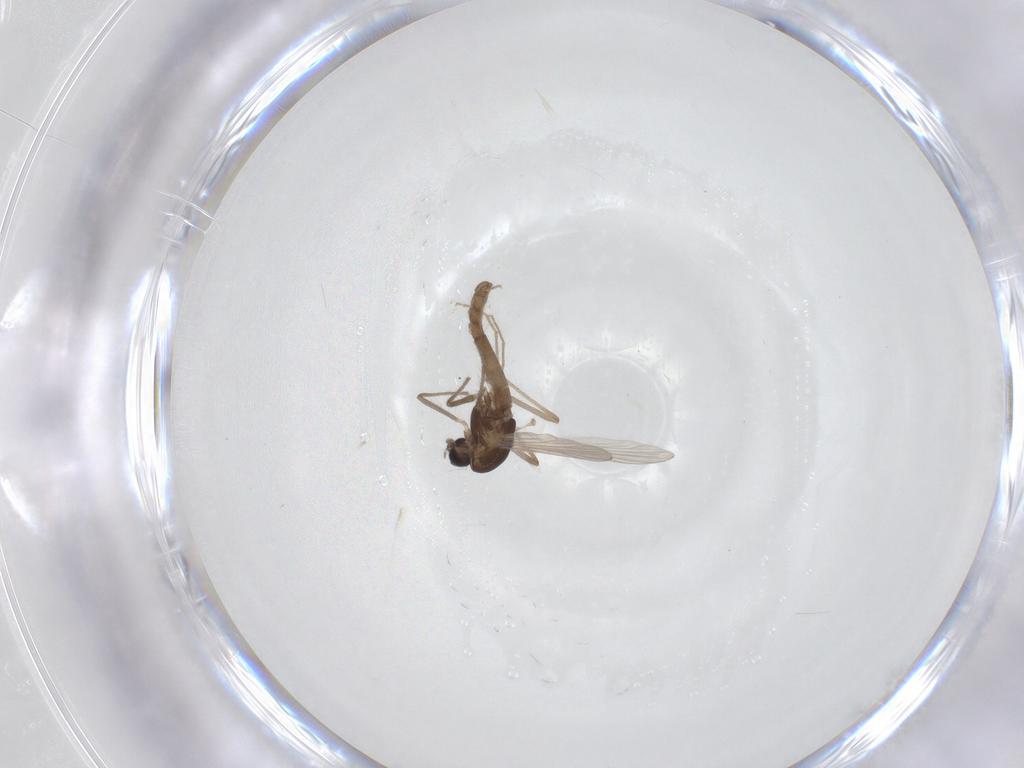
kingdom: Animalia
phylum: Arthropoda
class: Insecta
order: Diptera
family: Chironomidae
